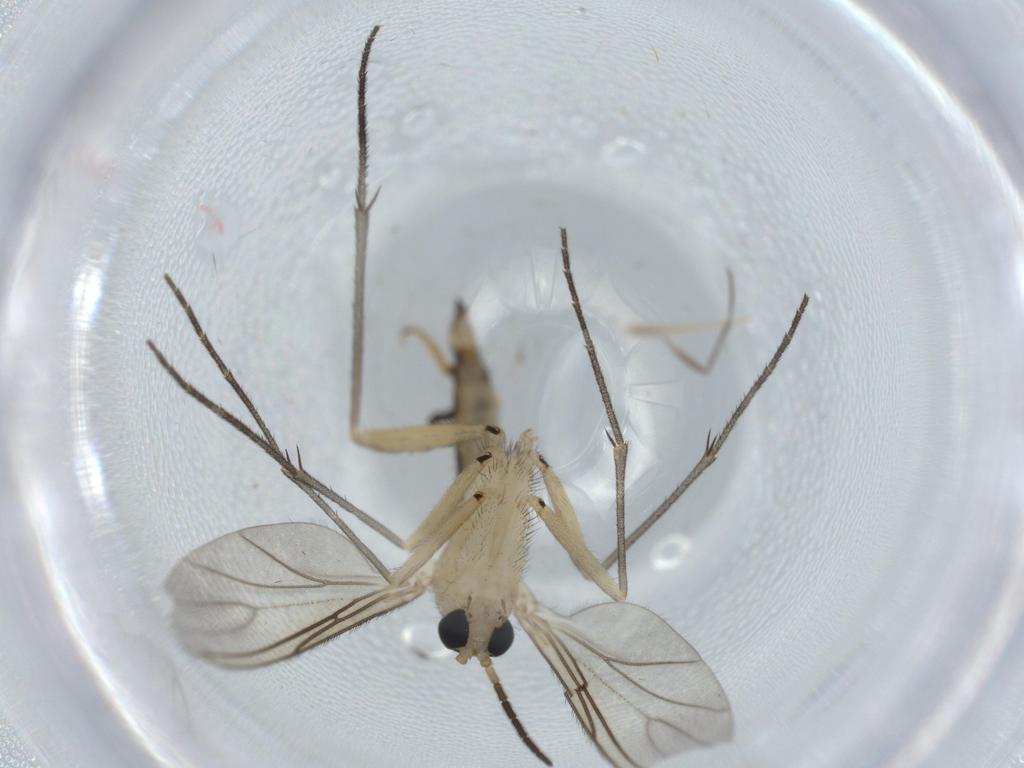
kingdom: Animalia
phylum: Arthropoda
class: Insecta
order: Diptera
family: Sciaridae
